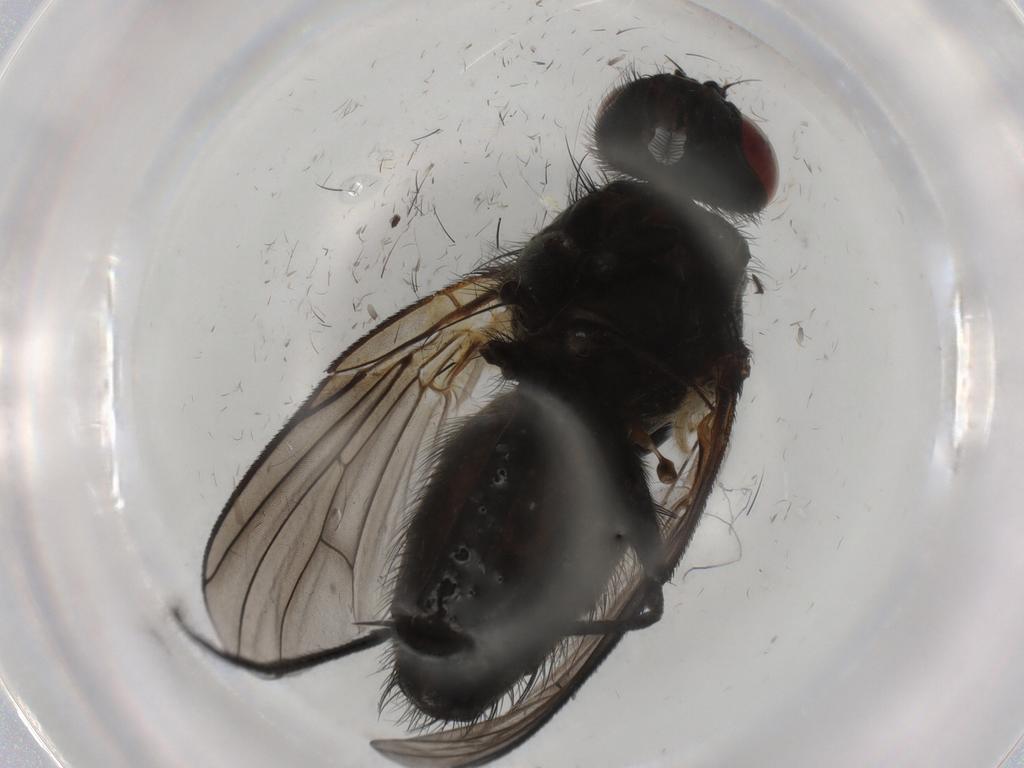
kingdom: Animalia
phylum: Arthropoda
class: Insecta
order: Diptera
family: Muscidae
